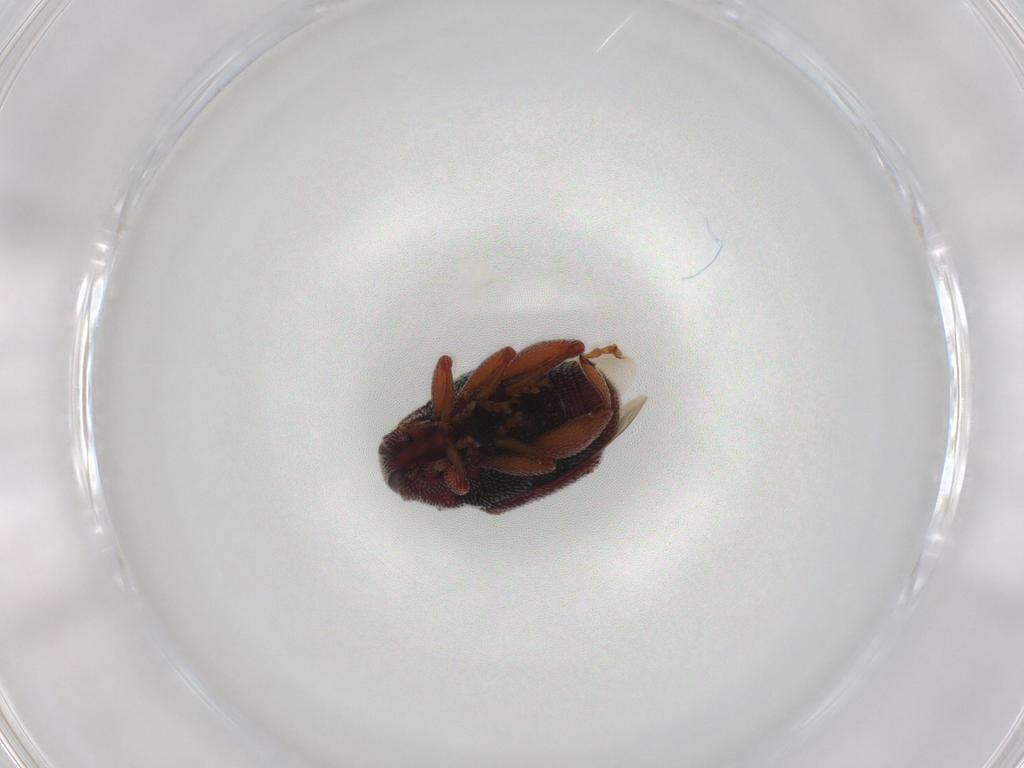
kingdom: Animalia
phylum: Arthropoda
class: Insecta
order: Coleoptera
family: Curculionidae
